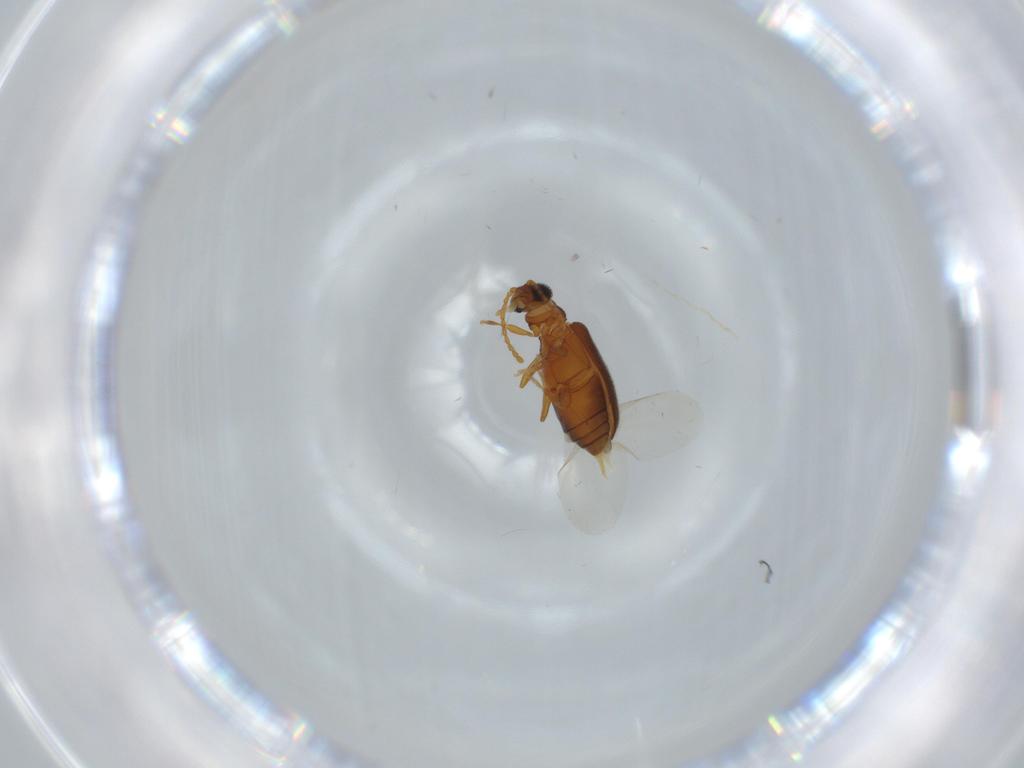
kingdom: Animalia
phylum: Arthropoda
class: Insecta
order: Coleoptera
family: Aderidae
